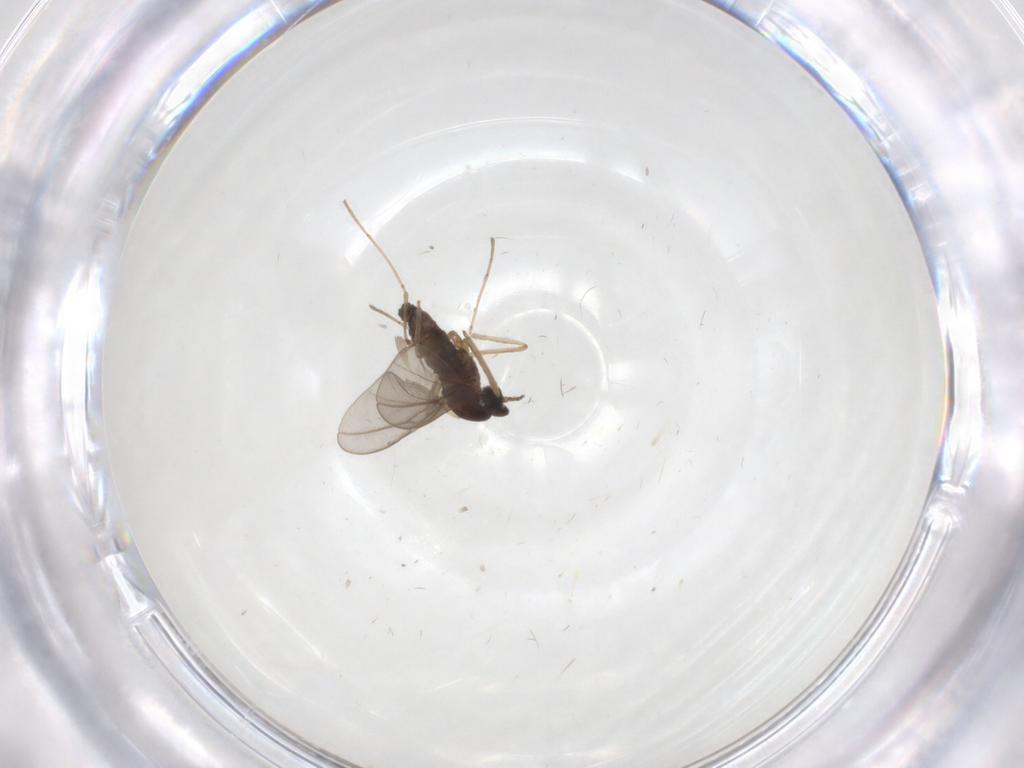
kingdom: Animalia
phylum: Arthropoda
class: Insecta
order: Diptera
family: Cecidomyiidae
